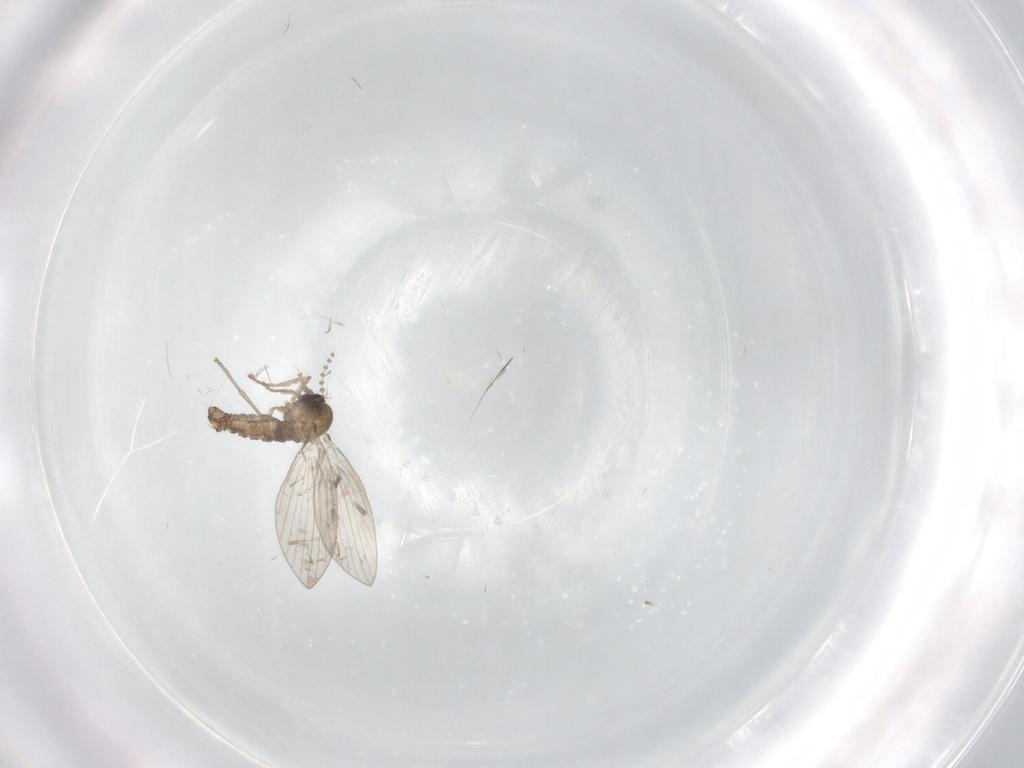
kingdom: Animalia
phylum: Arthropoda
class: Insecta
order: Diptera
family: Psychodidae
